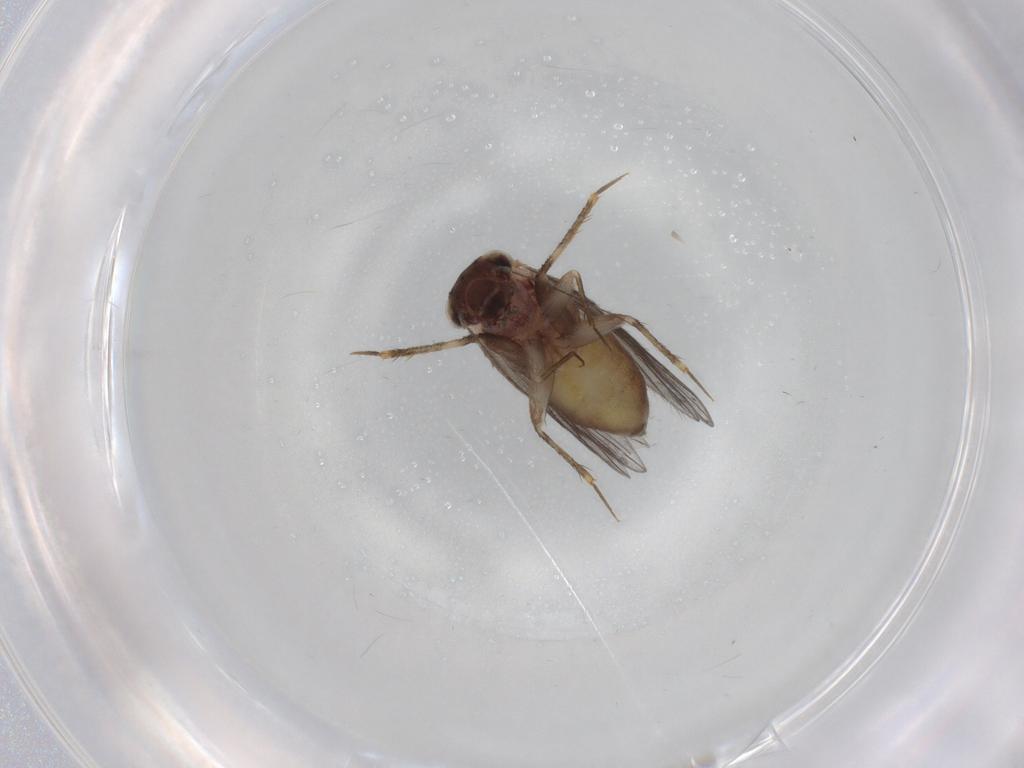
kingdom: Animalia
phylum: Arthropoda
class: Insecta
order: Psocodea
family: Lepidopsocidae
